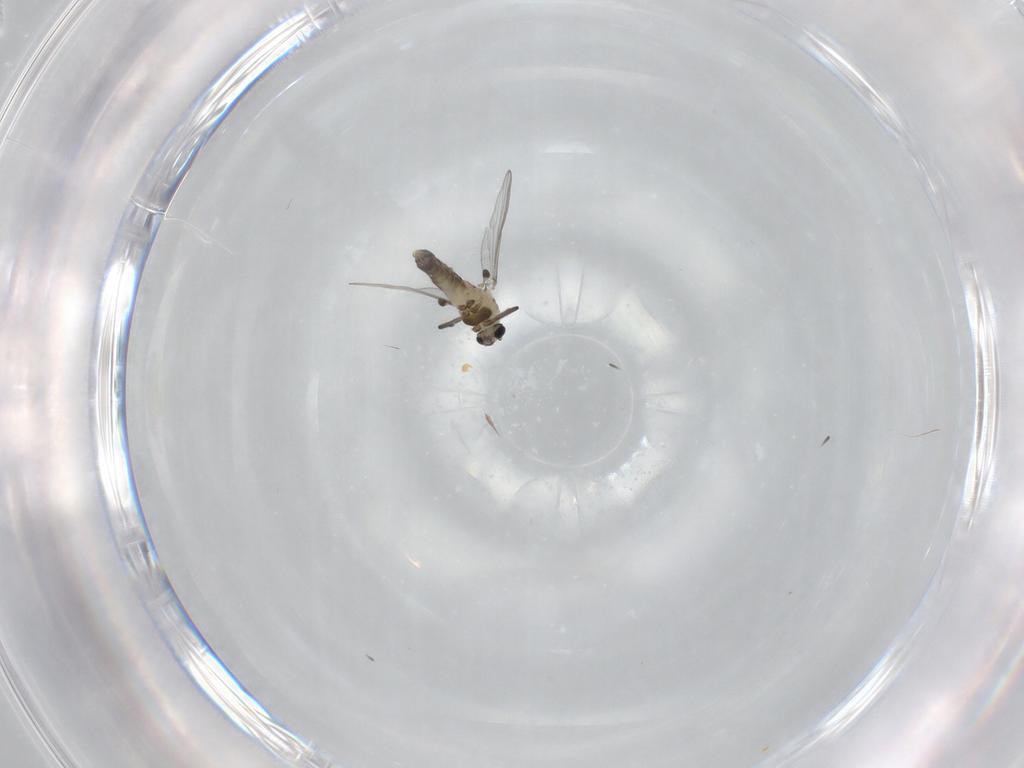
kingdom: Animalia
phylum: Arthropoda
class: Insecta
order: Diptera
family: Chironomidae
